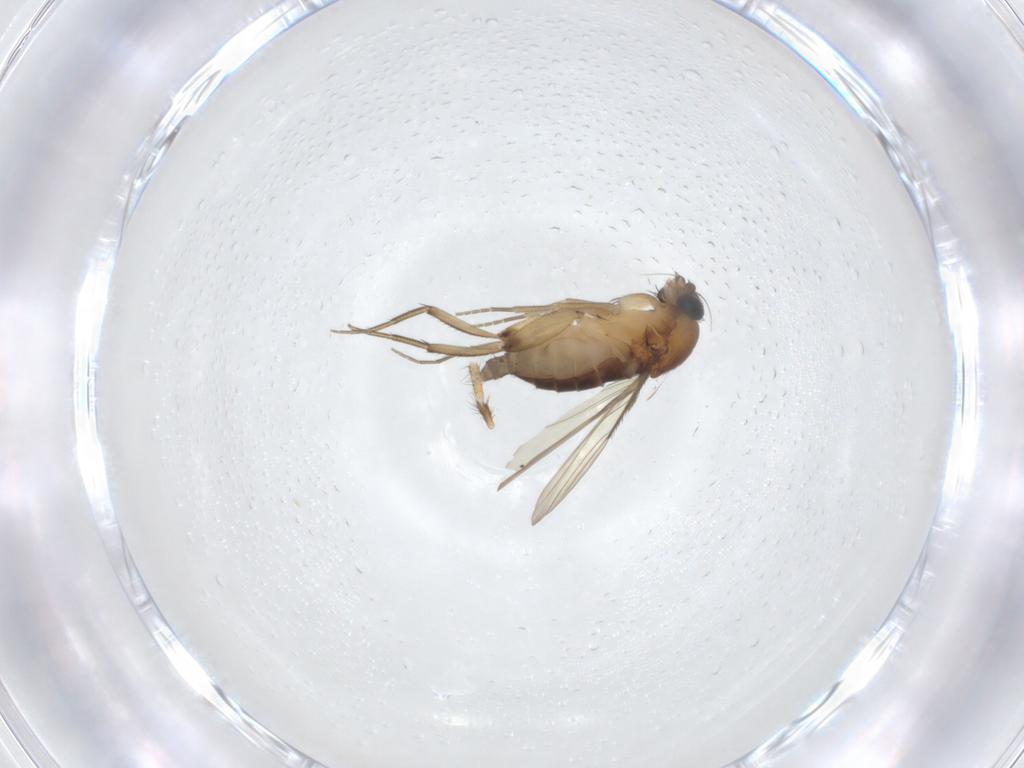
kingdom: Animalia
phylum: Arthropoda
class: Insecta
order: Diptera
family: Phoridae
